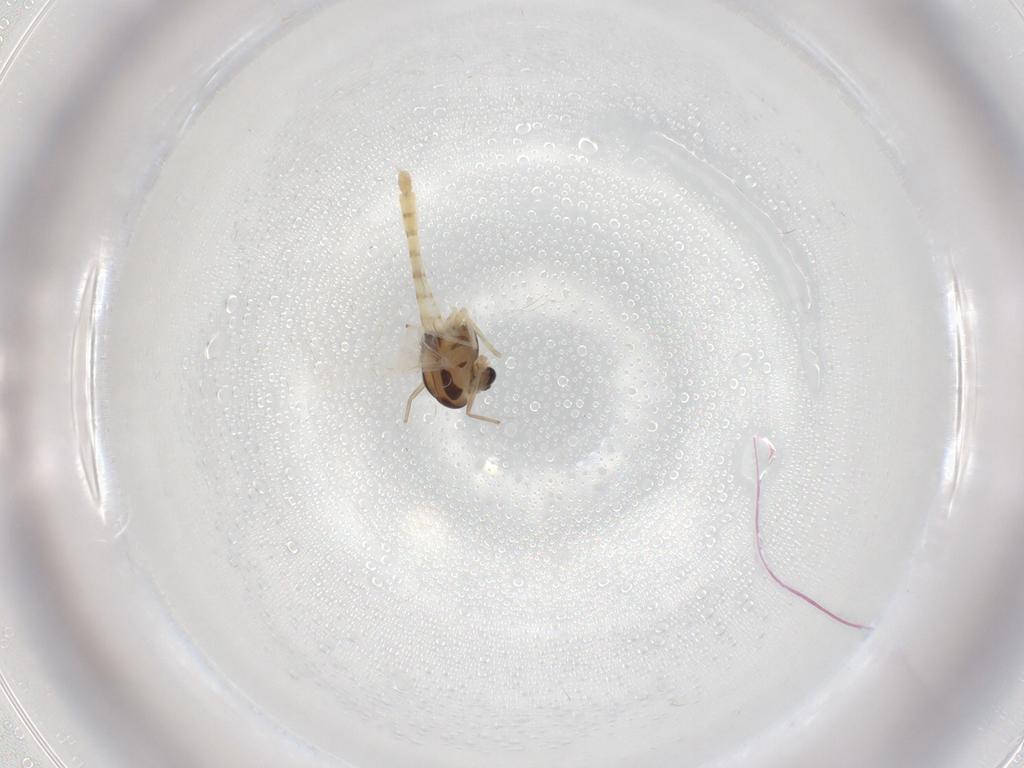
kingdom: Animalia
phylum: Arthropoda
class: Insecta
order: Diptera
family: Chironomidae
